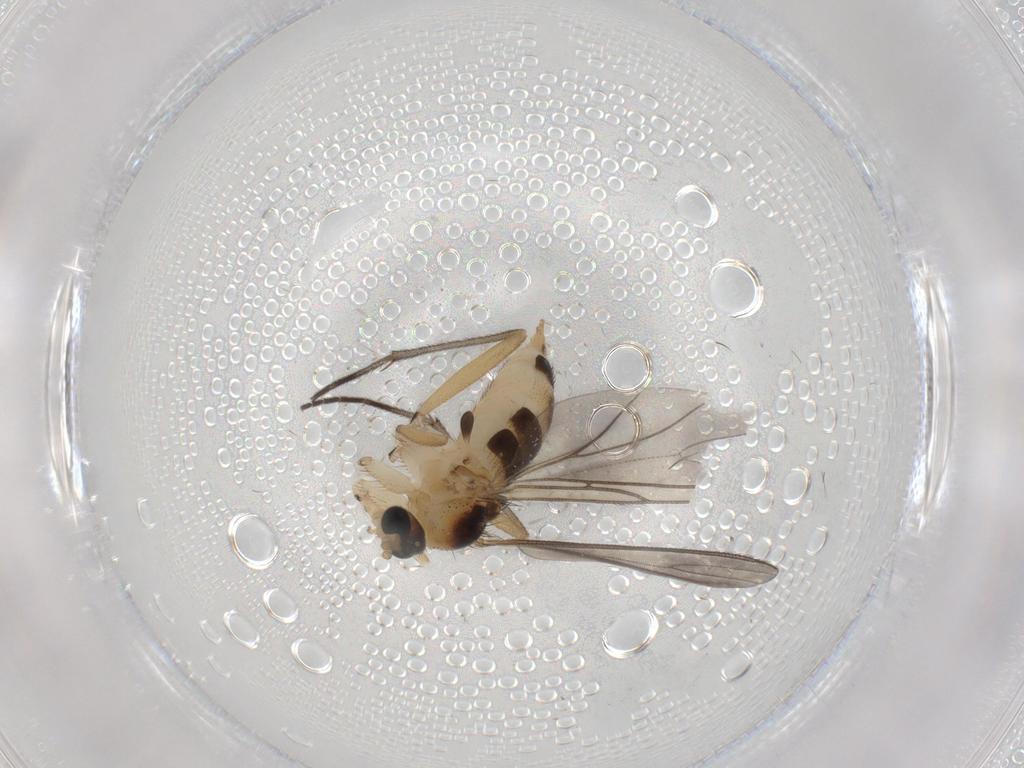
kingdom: Animalia
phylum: Arthropoda
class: Insecta
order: Diptera
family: Sciaridae
